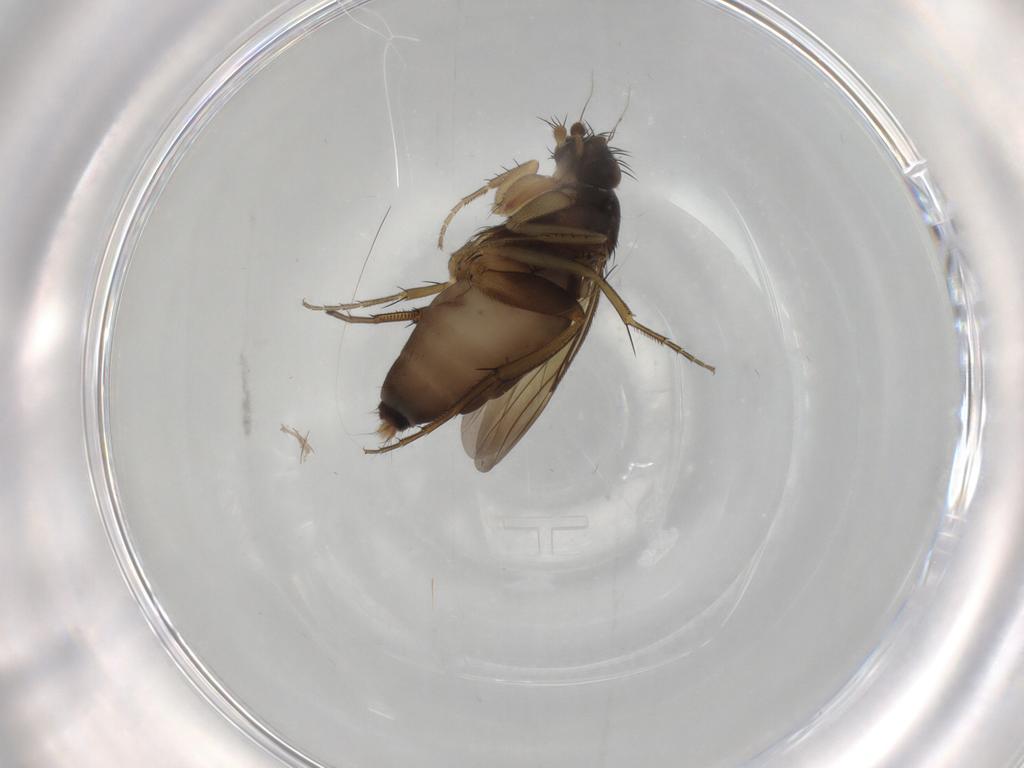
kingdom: Animalia
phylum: Arthropoda
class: Insecta
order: Diptera
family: Phoridae
